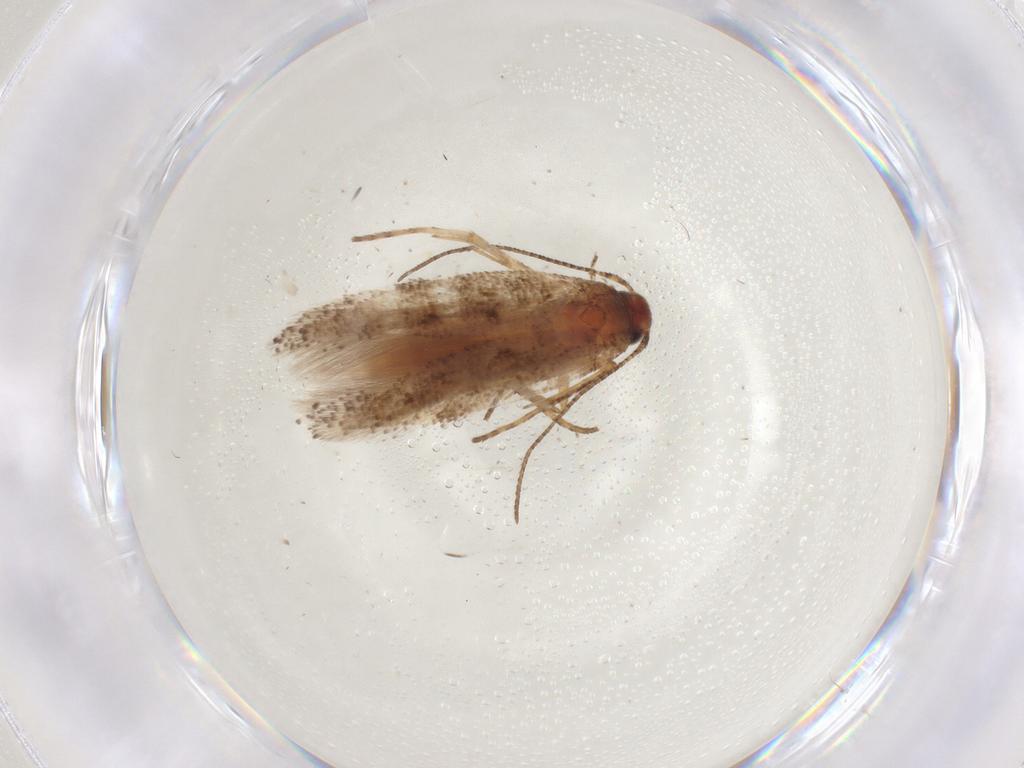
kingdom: Animalia
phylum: Arthropoda
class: Insecta
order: Lepidoptera
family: Gelechiidae
